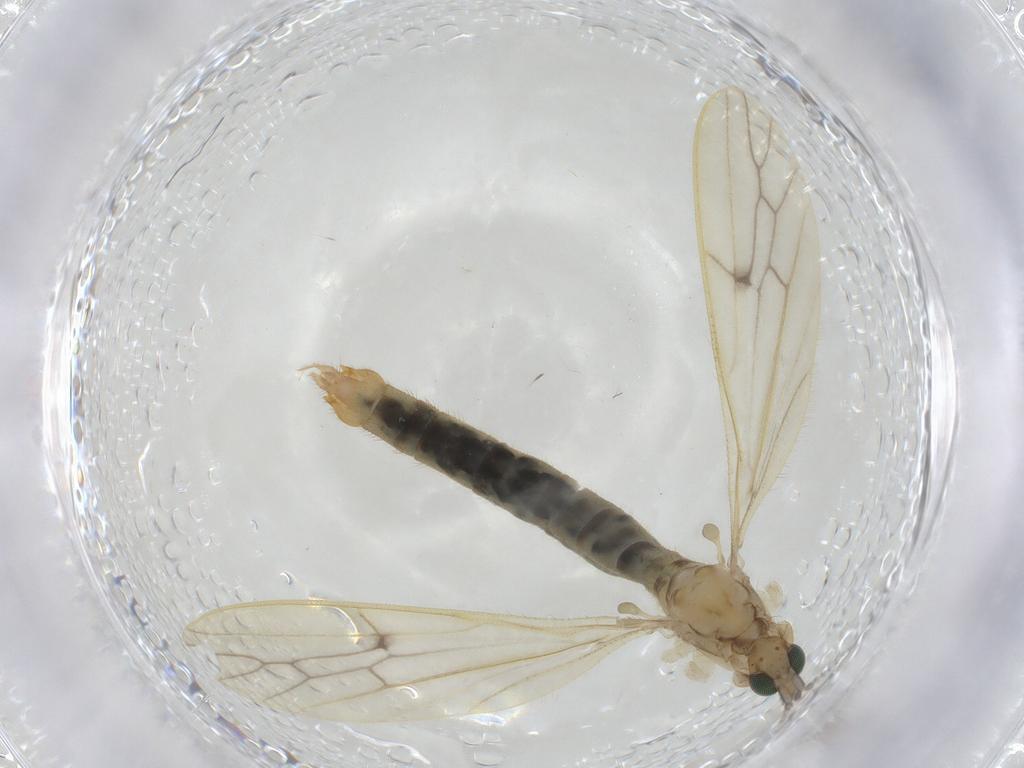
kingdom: Animalia
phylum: Arthropoda
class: Insecta
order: Diptera
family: Limoniidae
